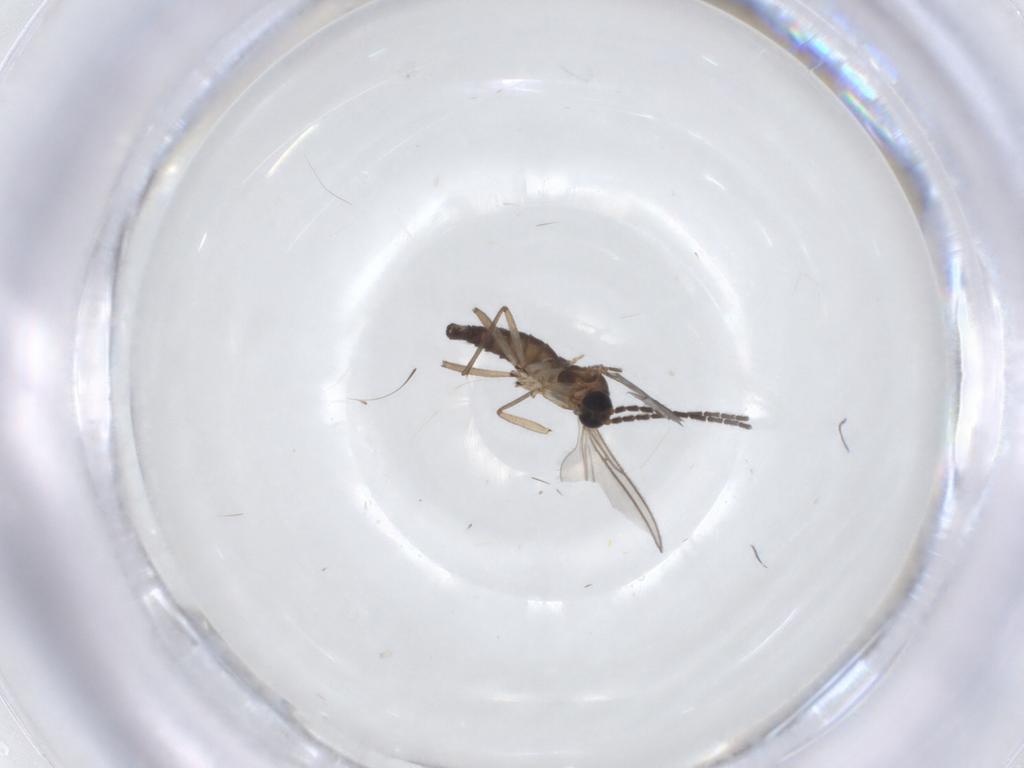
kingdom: Animalia
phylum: Arthropoda
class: Insecta
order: Diptera
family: Sciaridae
